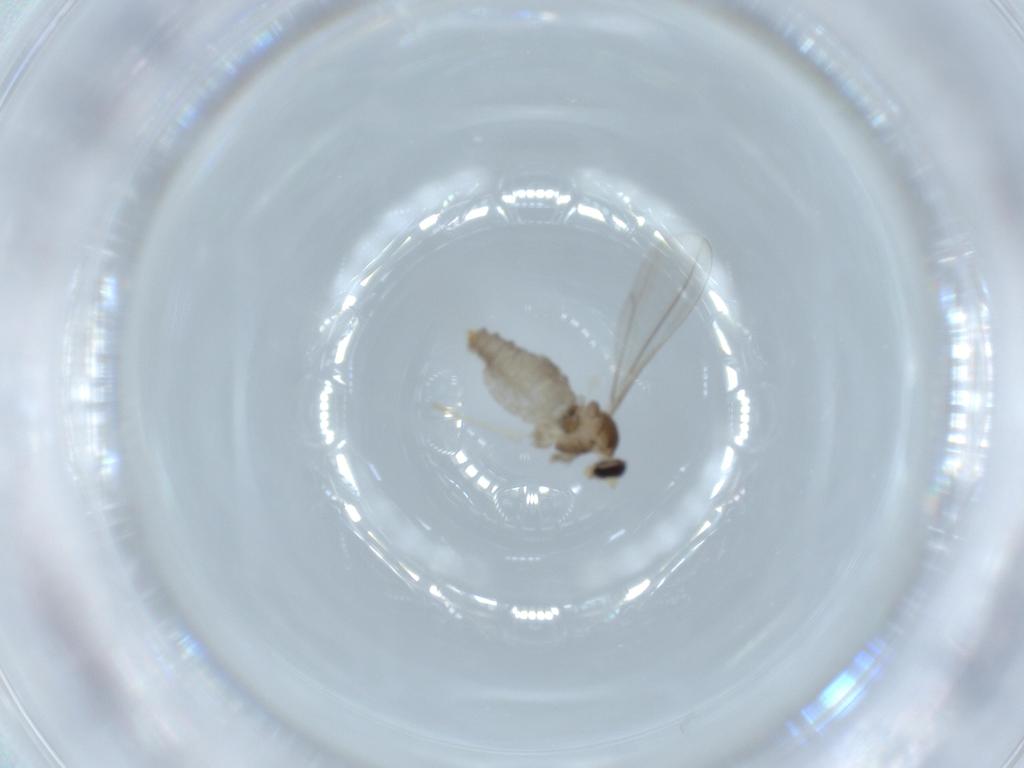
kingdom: Animalia
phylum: Arthropoda
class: Insecta
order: Diptera
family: Cecidomyiidae
